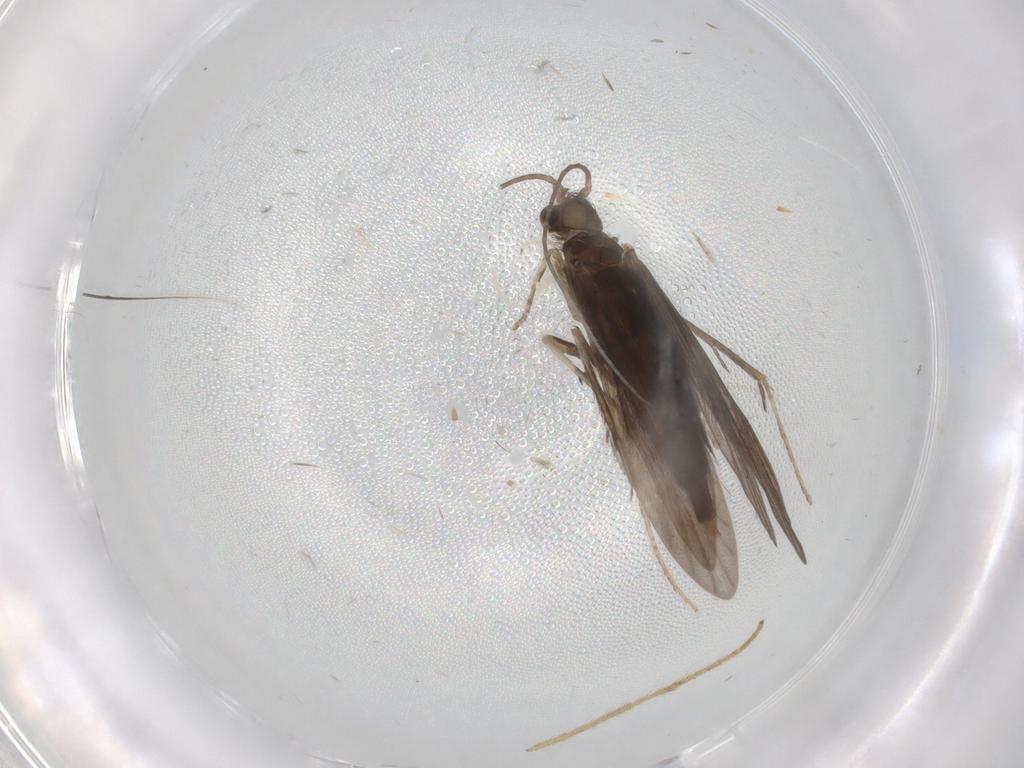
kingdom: Animalia
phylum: Arthropoda
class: Insecta
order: Trichoptera
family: Xiphocentronidae
